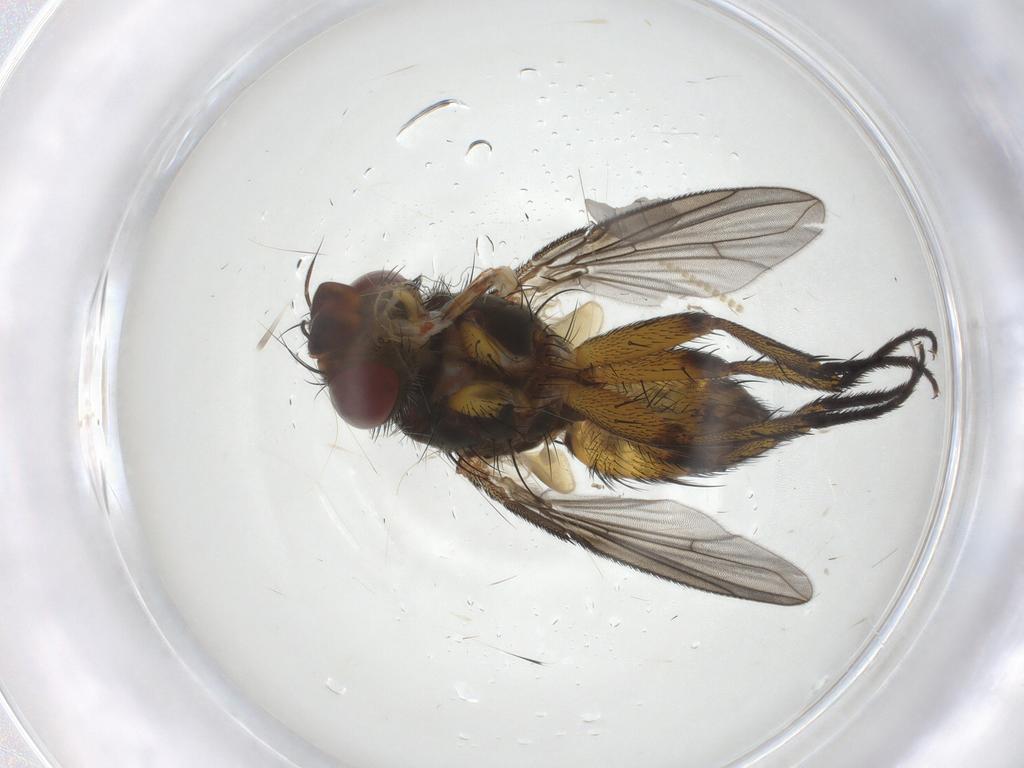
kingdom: Animalia
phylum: Arthropoda
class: Insecta
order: Diptera
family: Muscidae
